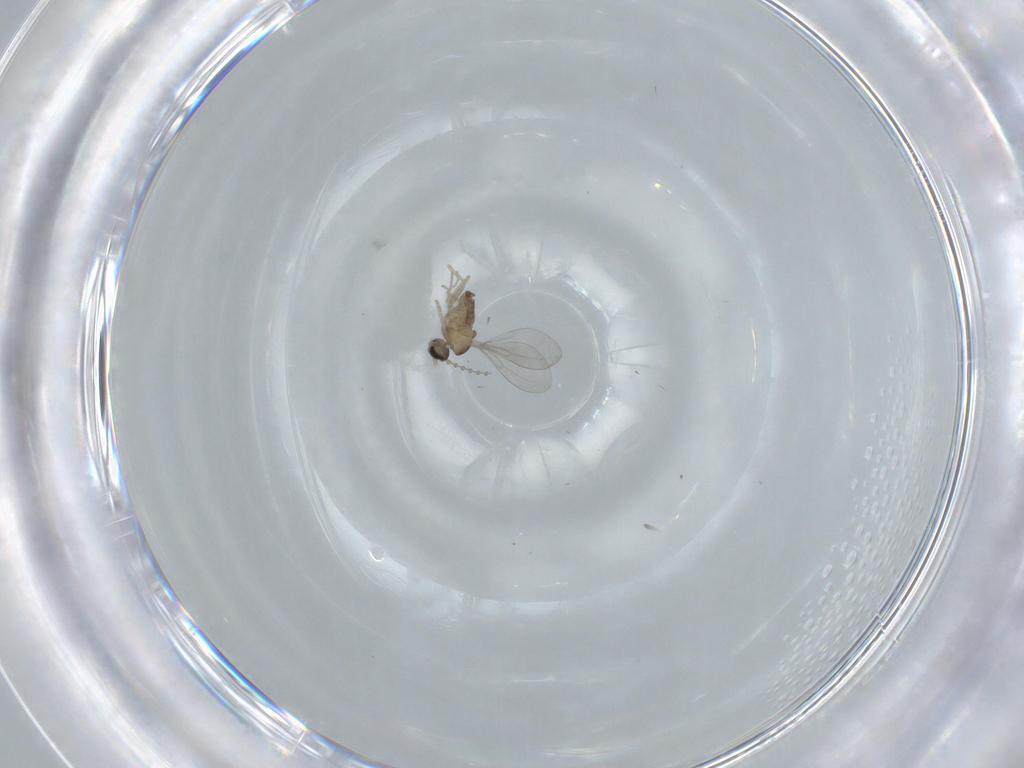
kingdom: Animalia
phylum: Arthropoda
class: Insecta
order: Diptera
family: Cecidomyiidae
